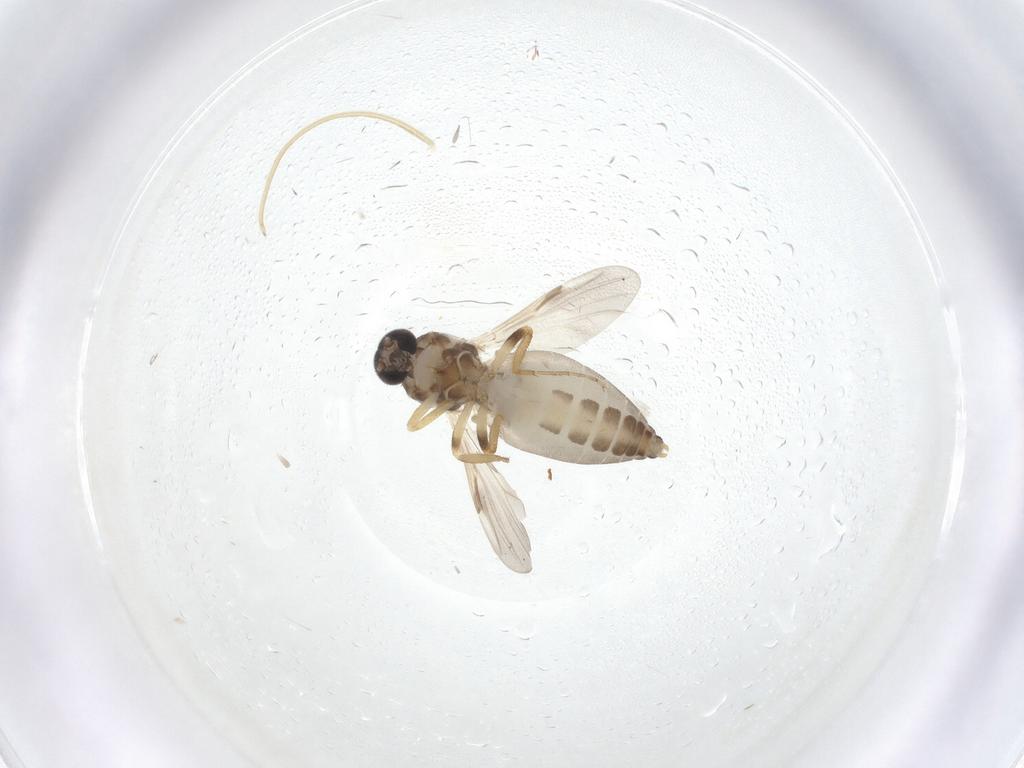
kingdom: Animalia
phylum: Arthropoda
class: Insecta
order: Diptera
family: Ceratopogonidae
